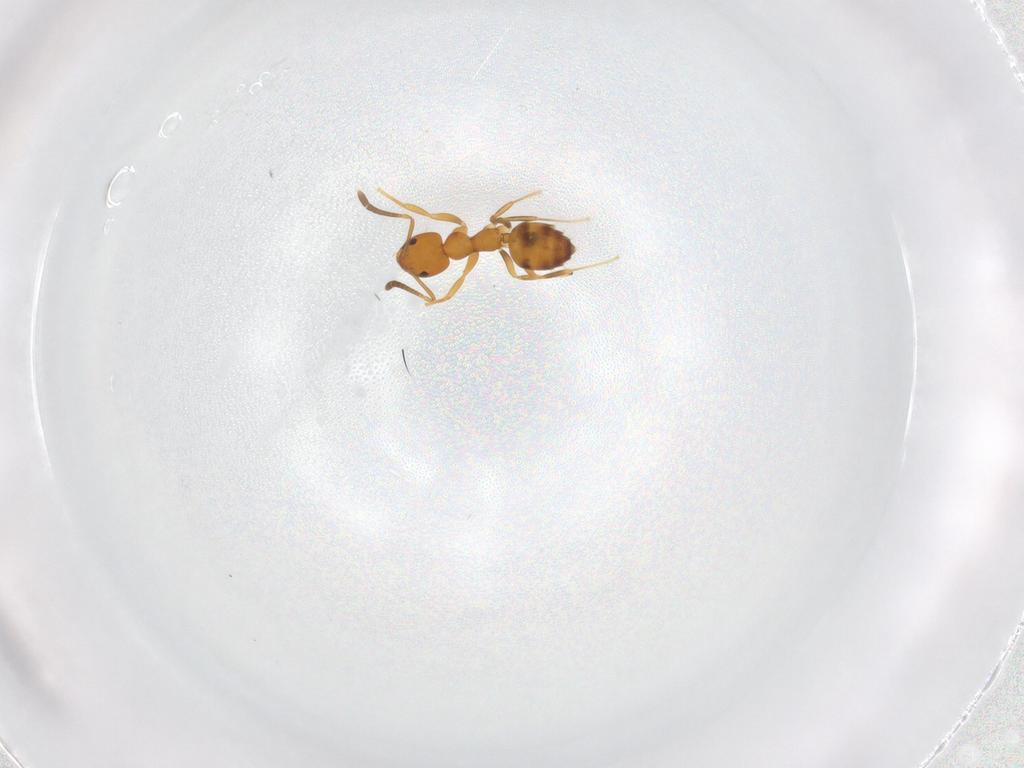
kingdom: Animalia
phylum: Arthropoda
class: Insecta
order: Hymenoptera
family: Formicidae
